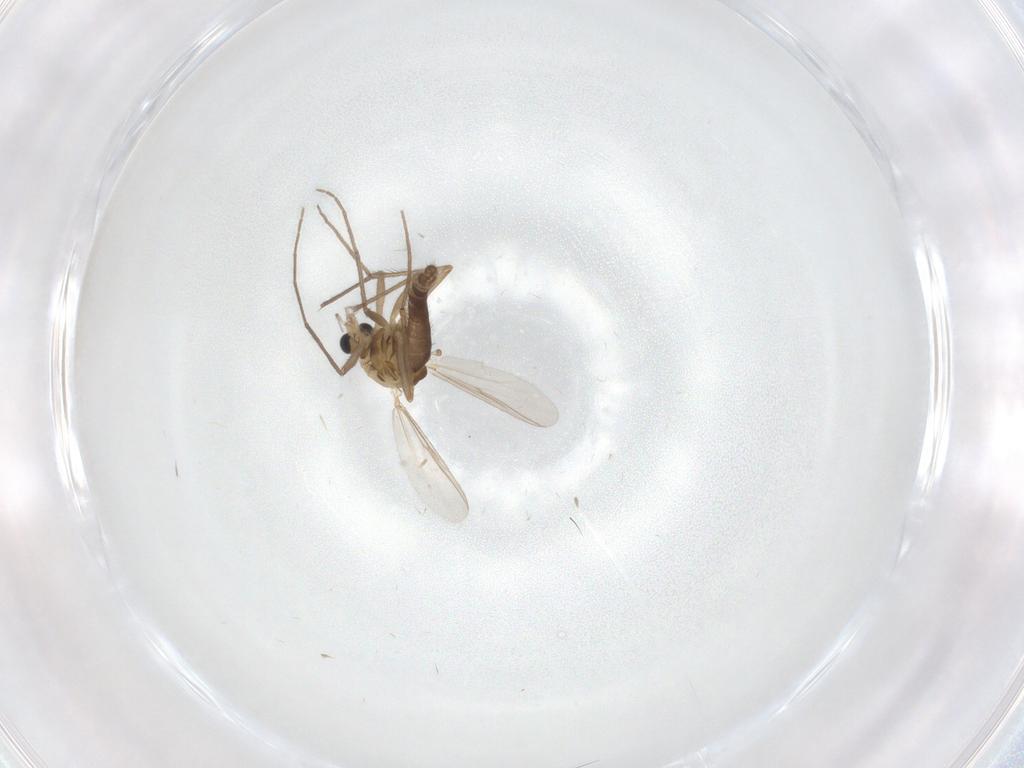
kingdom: Animalia
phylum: Arthropoda
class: Insecta
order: Diptera
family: Chironomidae
